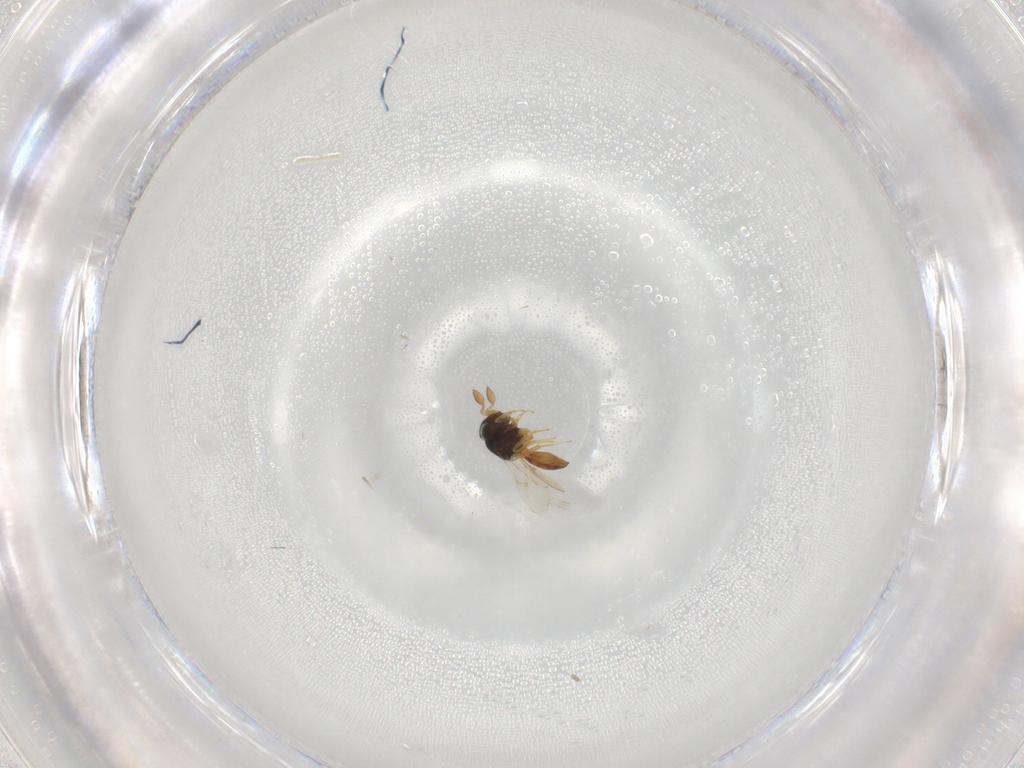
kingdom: Animalia
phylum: Arthropoda
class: Insecta
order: Hymenoptera
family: Scelionidae
